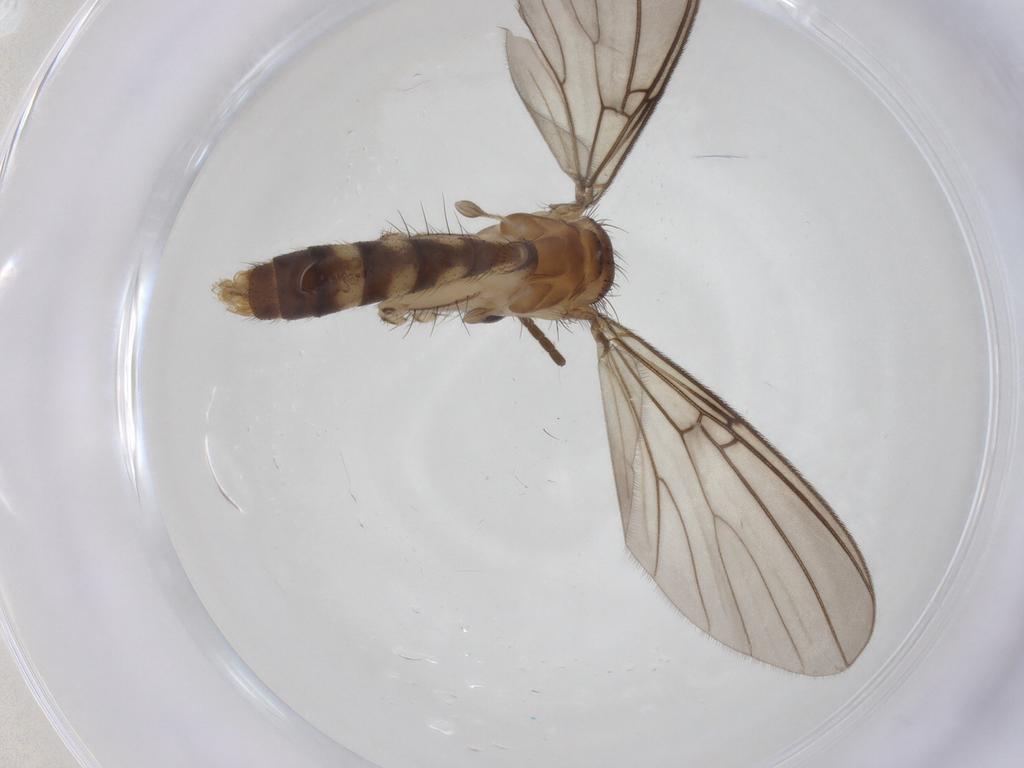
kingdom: Animalia
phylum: Arthropoda
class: Insecta
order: Diptera
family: Mycetophilidae
